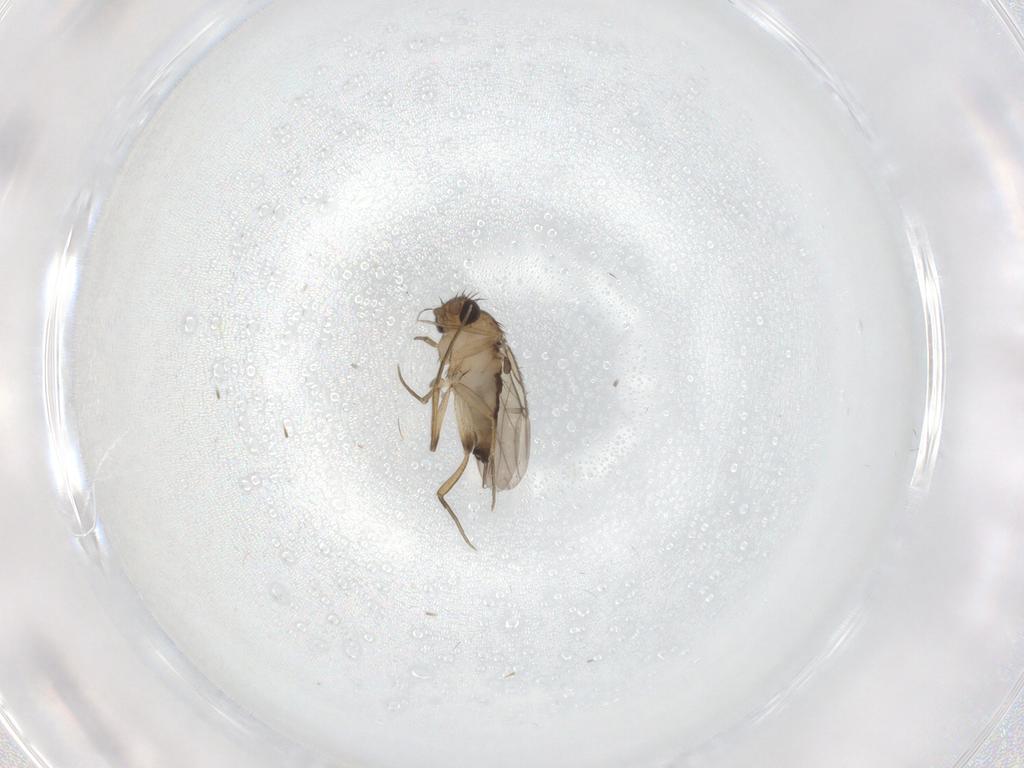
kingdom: Animalia
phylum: Arthropoda
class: Insecta
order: Diptera
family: Phoridae
